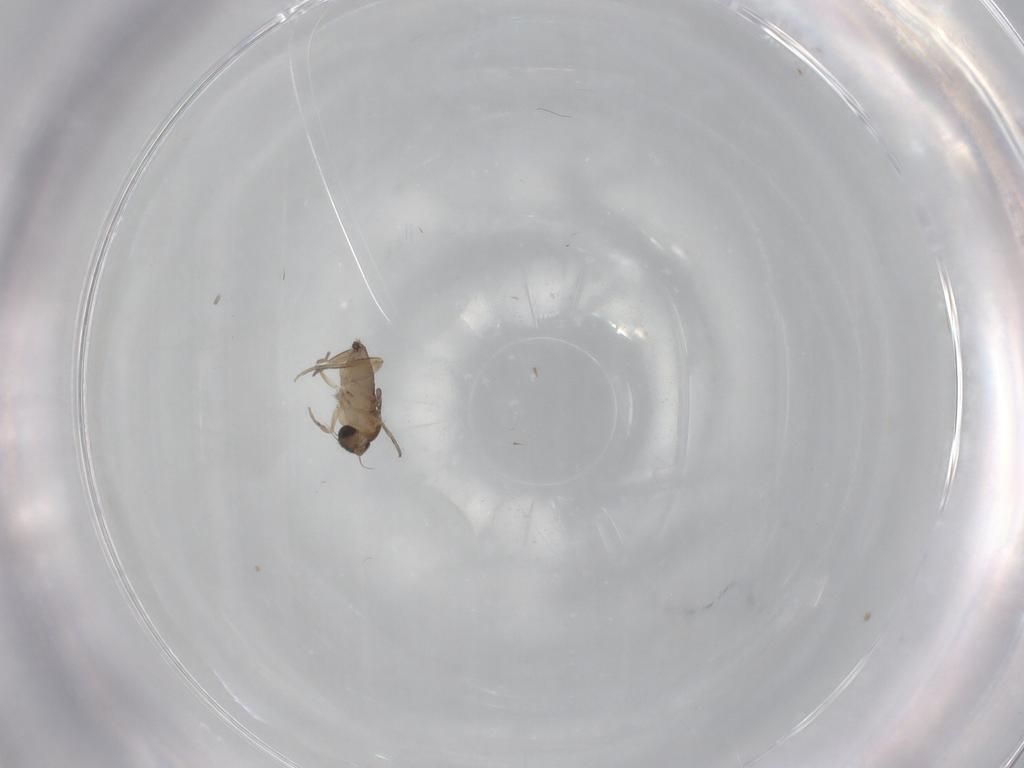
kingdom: Animalia
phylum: Arthropoda
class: Insecta
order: Diptera
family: Phoridae
